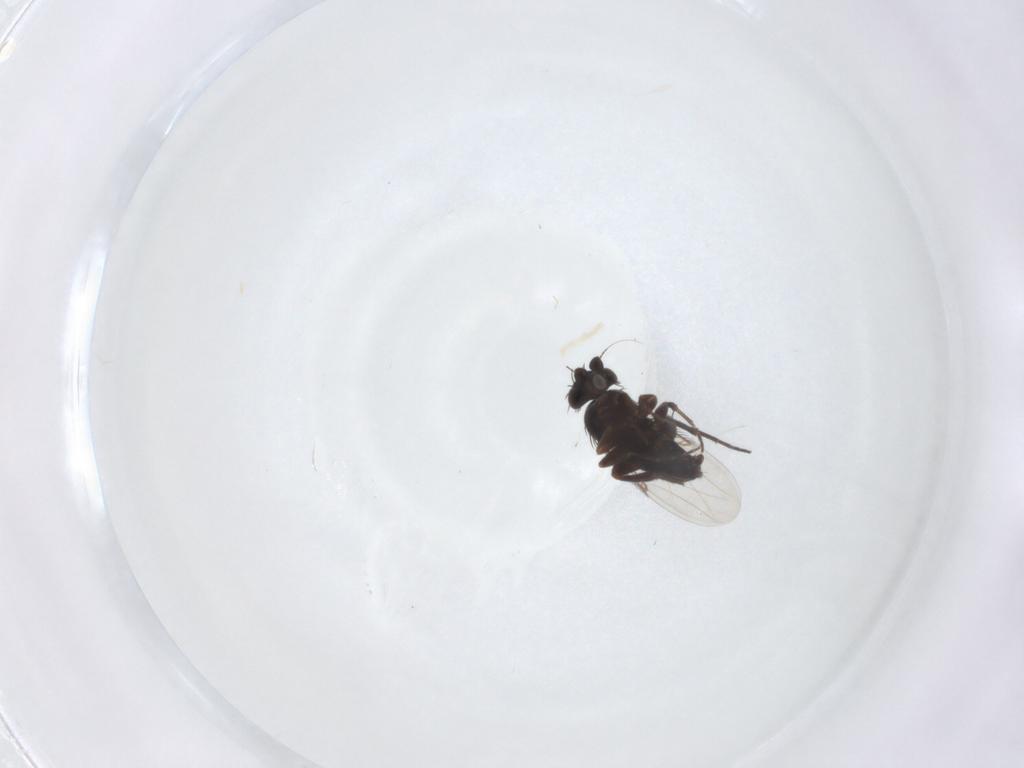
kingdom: Animalia
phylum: Arthropoda
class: Insecta
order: Diptera
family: Phoridae
